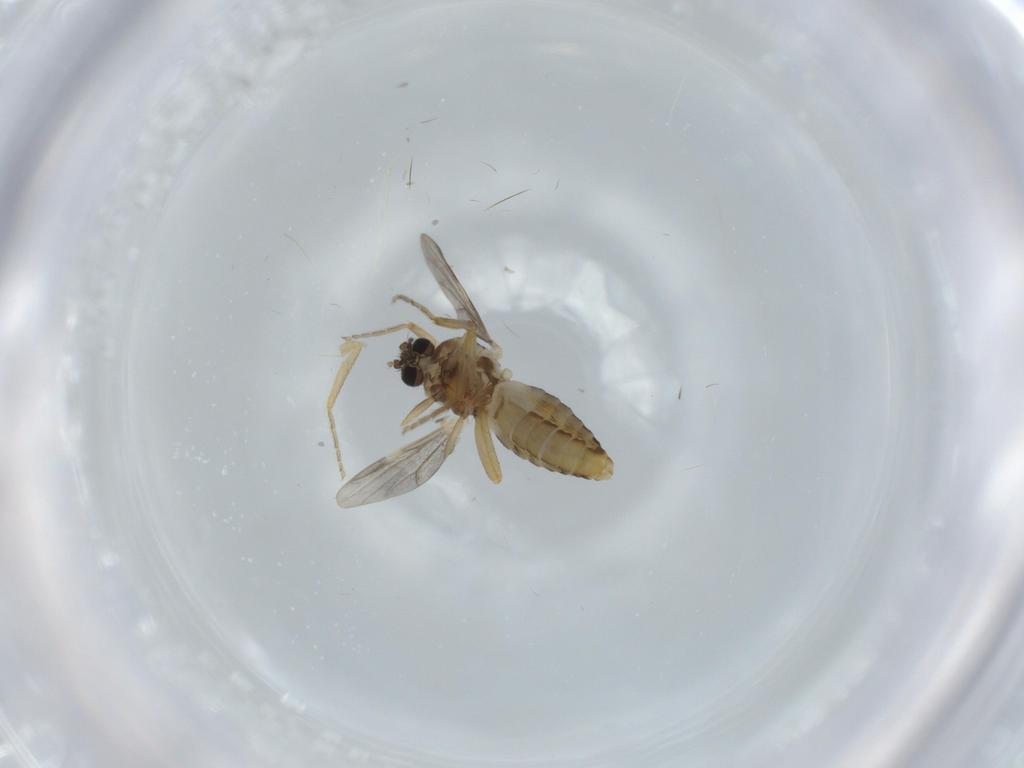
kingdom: Animalia
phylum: Arthropoda
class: Insecta
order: Diptera
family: Ceratopogonidae
